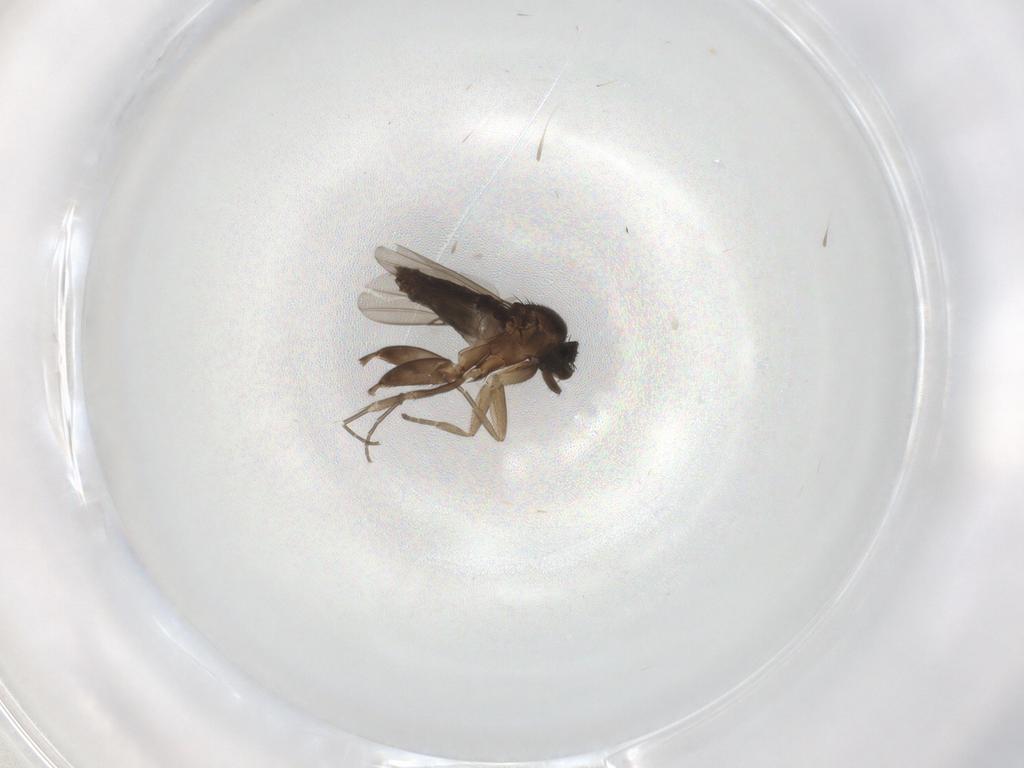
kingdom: Animalia
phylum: Arthropoda
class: Insecta
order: Diptera
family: Phoridae
